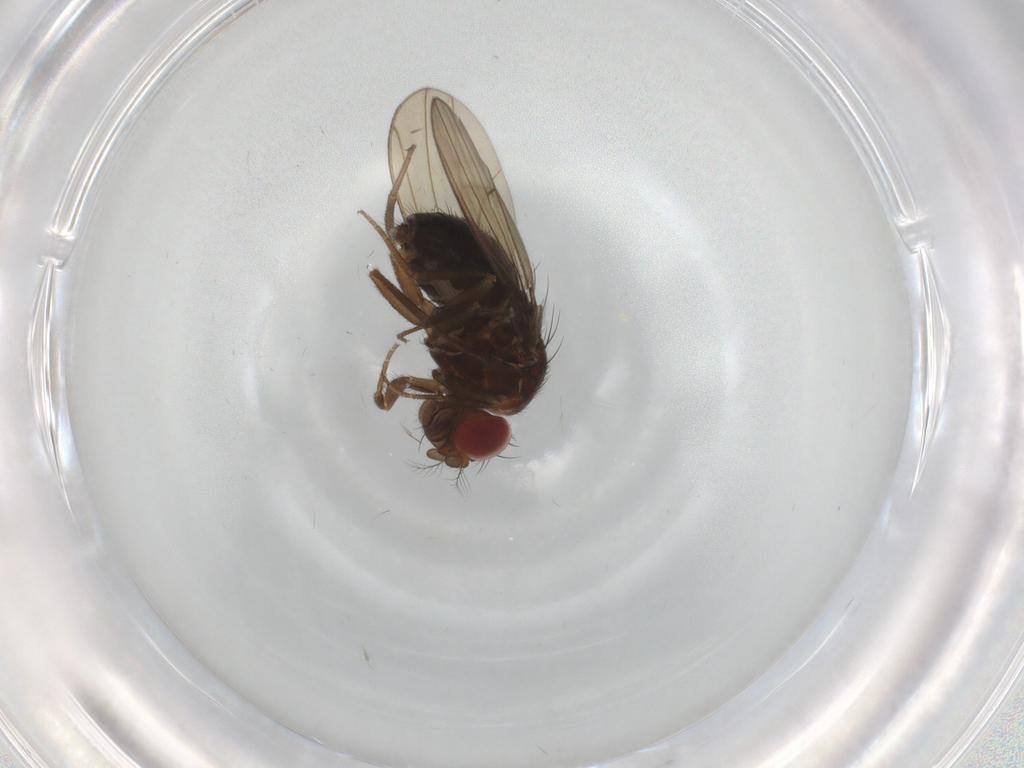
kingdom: Animalia
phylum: Arthropoda
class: Insecta
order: Diptera
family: Drosophilidae
